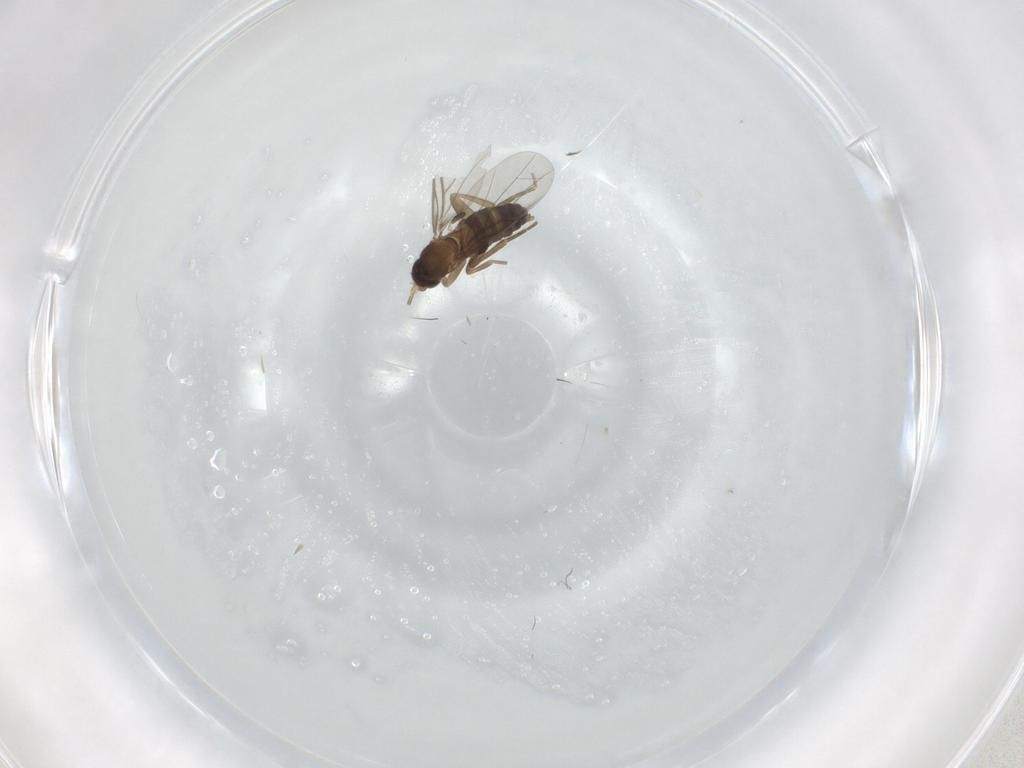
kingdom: Animalia
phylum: Arthropoda
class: Insecta
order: Diptera
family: Phoridae
